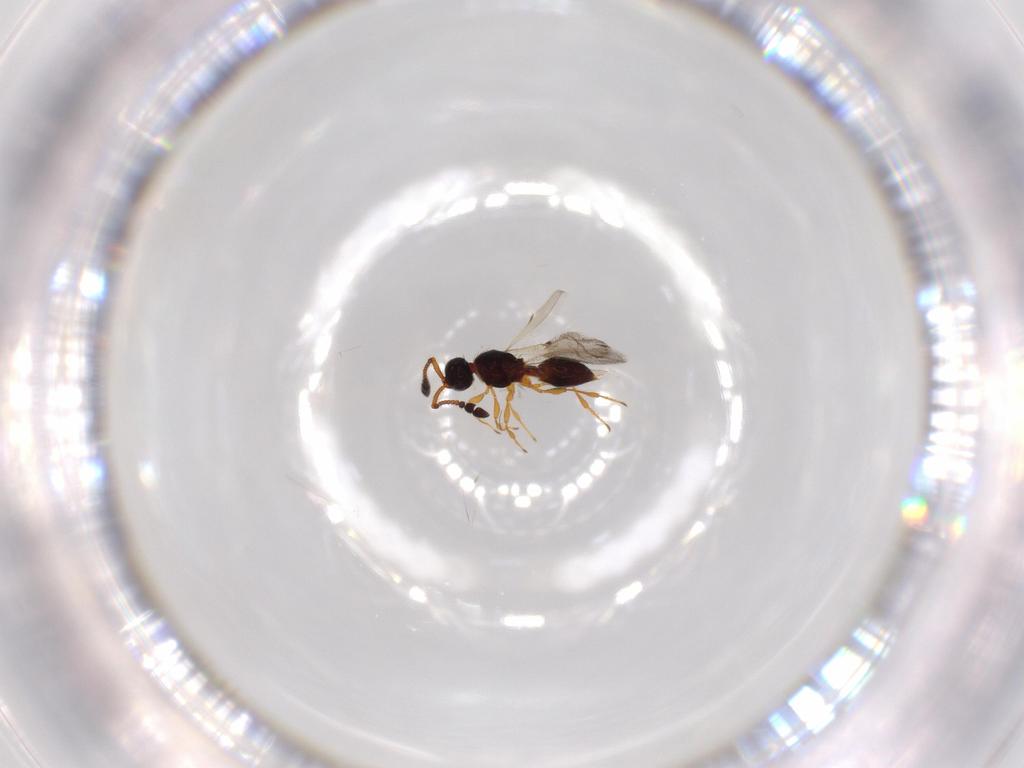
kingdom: Animalia
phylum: Arthropoda
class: Insecta
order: Hymenoptera
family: Diapriidae
